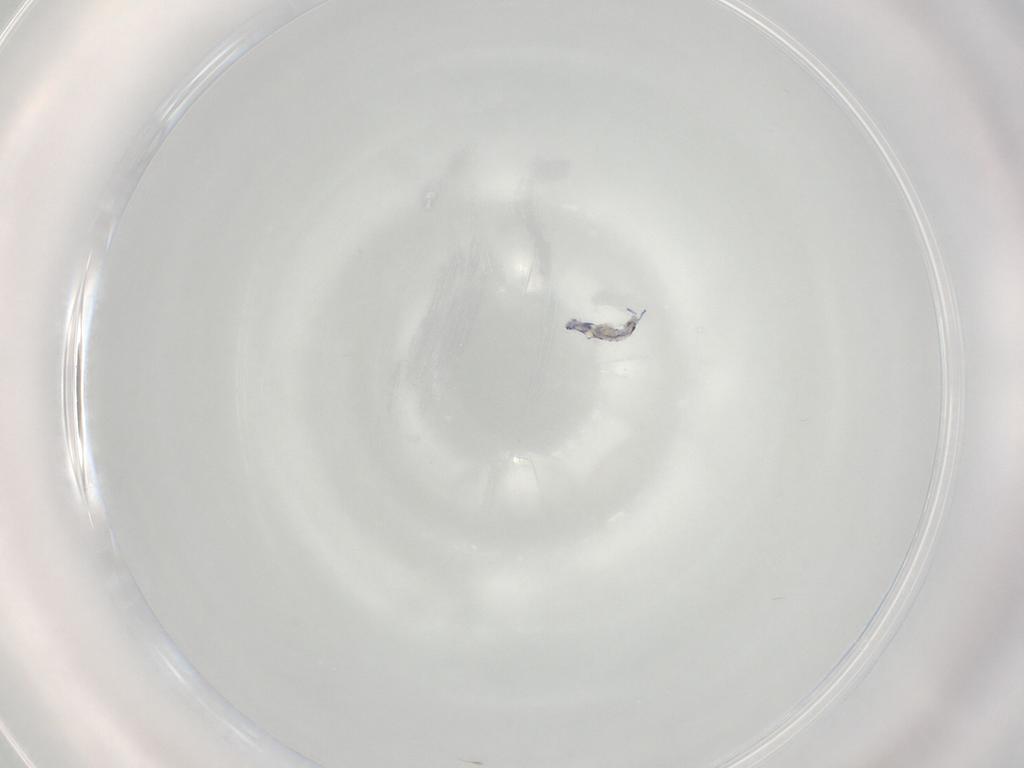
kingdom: Animalia
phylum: Arthropoda
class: Collembola
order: Entomobryomorpha
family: Entomobryidae
